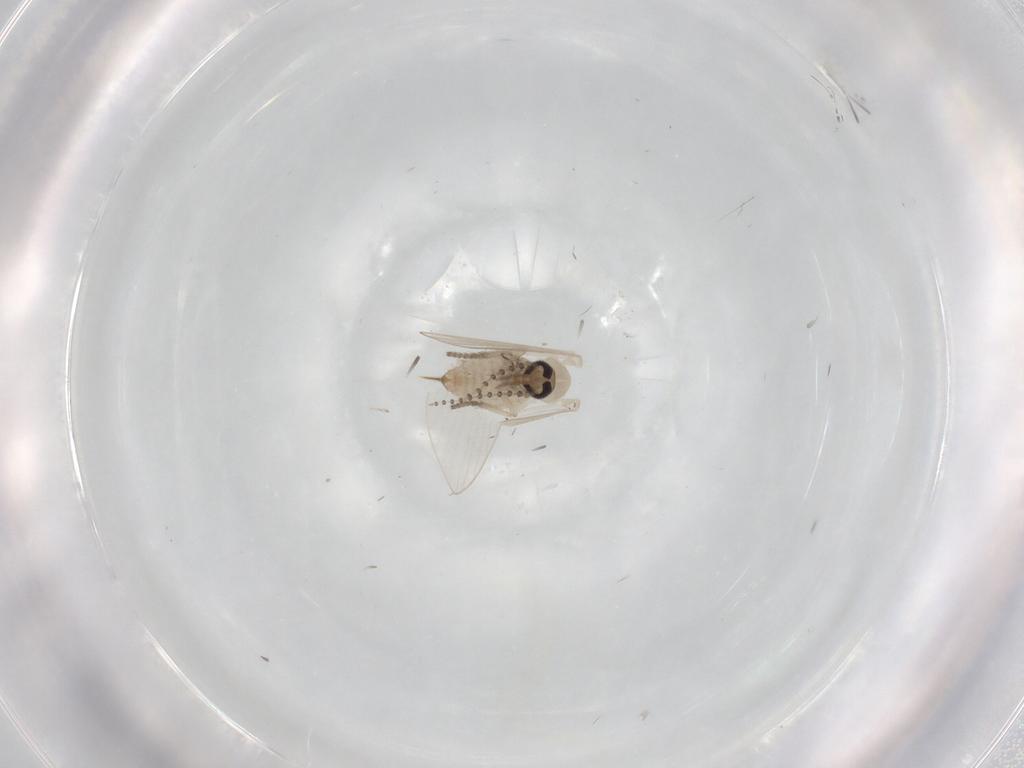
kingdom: Animalia
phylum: Arthropoda
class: Insecta
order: Diptera
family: Psychodidae
